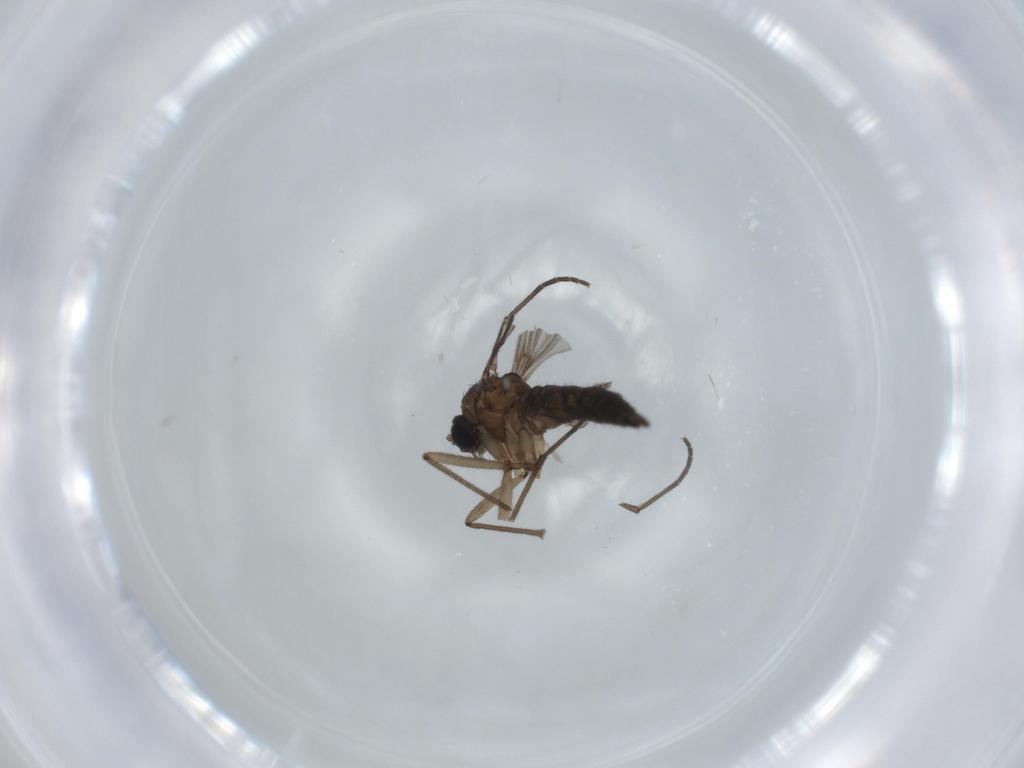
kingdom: Animalia
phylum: Arthropoda
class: Insecta
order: Diptera
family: Sciaridae
